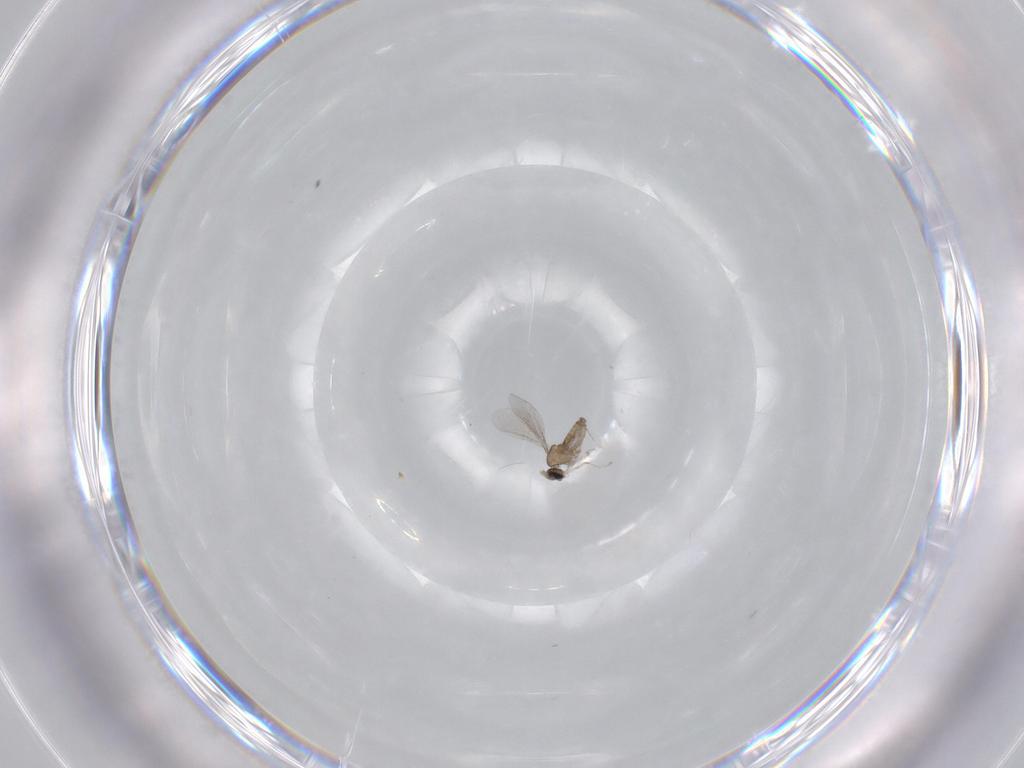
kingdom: Animalia
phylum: Arthropoda
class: Insecta
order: Diptera
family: Cecidomyiidae
